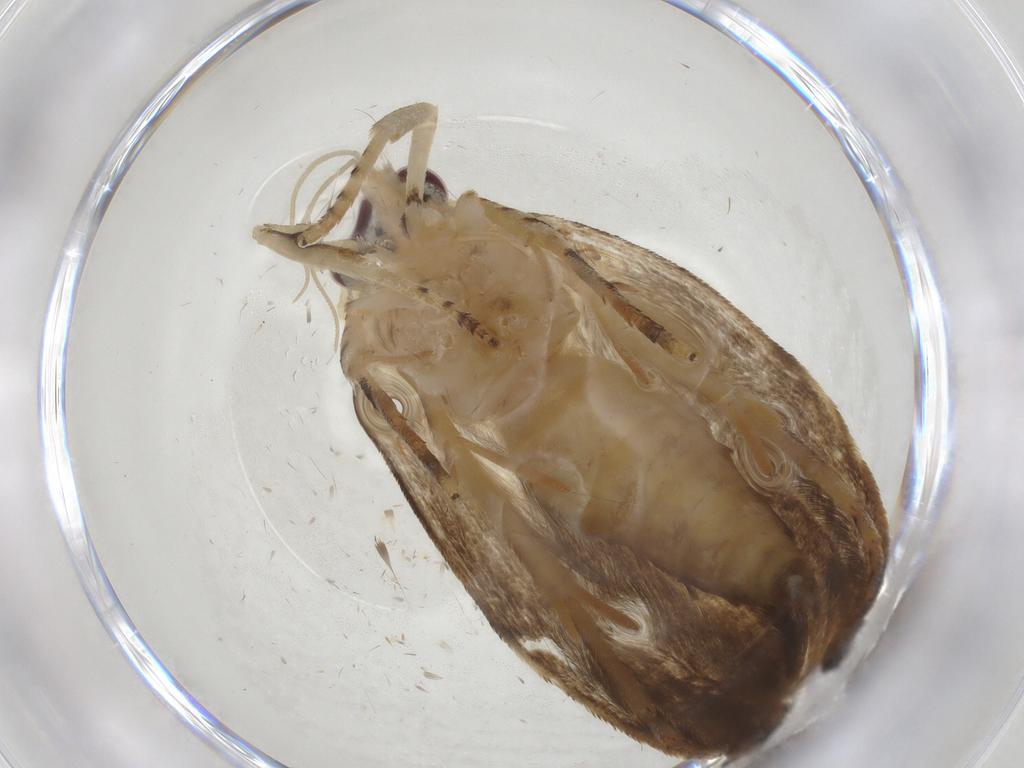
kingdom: Animalia
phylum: Arthropoda
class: Insecta
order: Lepidoptera
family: Gelechiidae
